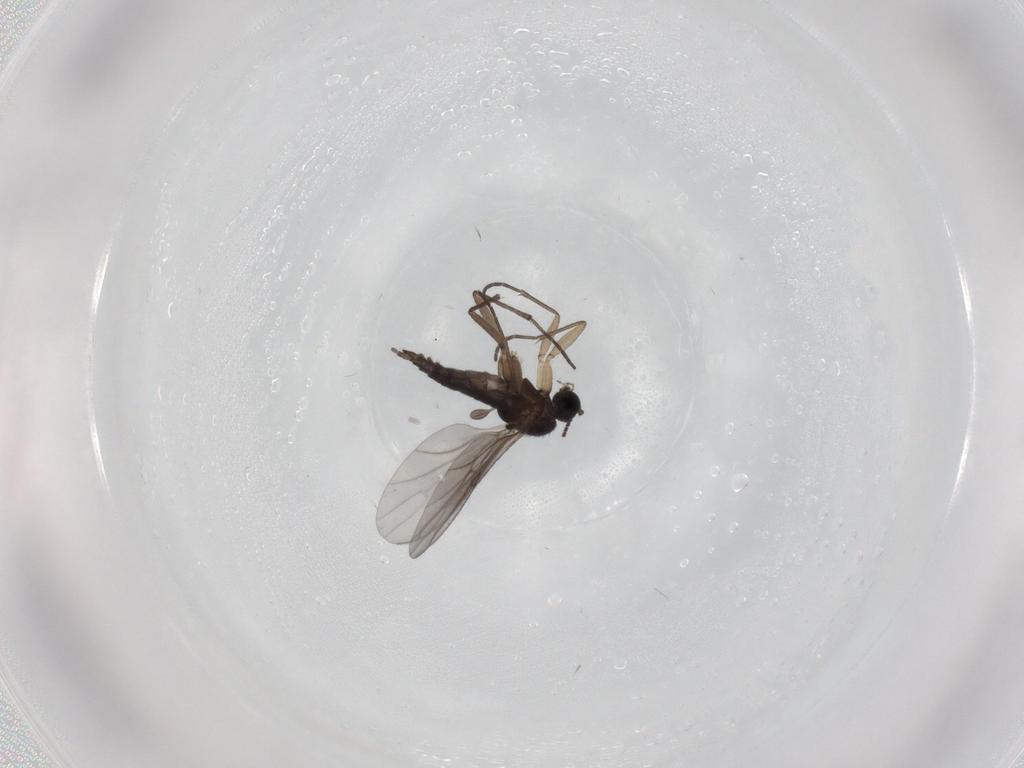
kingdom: Animalia
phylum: Arthropoda
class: Insecta
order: Diptera
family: Sciaridae
